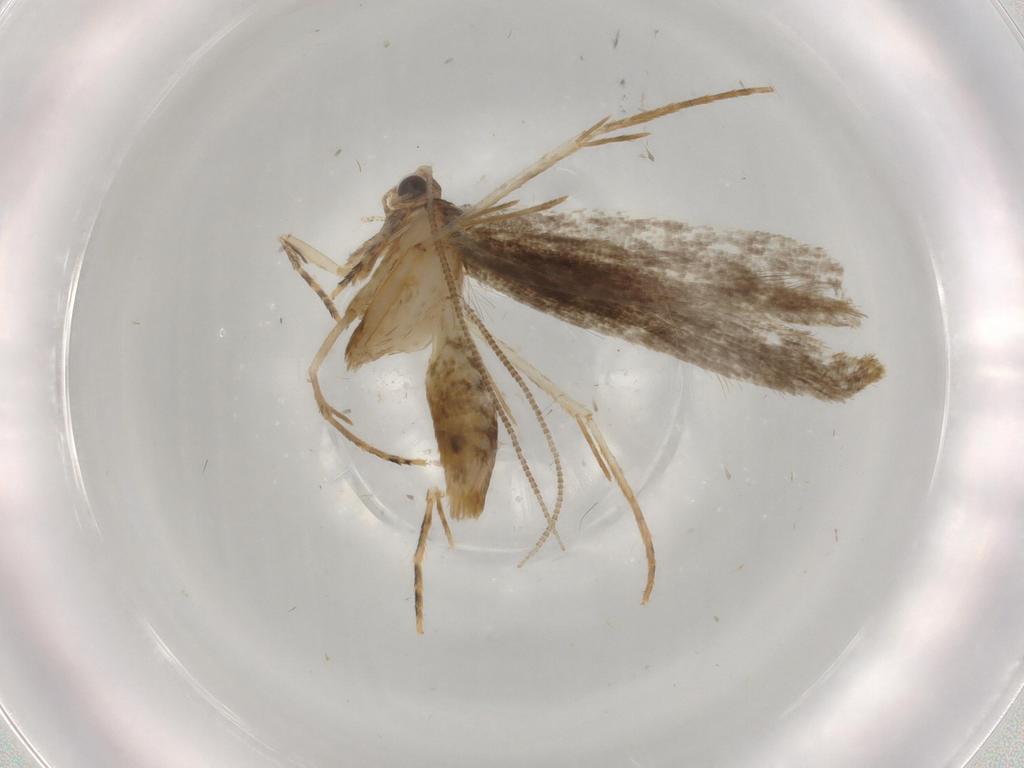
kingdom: Animalia
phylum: Arthropoda
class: Insecta
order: Lepidoptera
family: Tineidae
